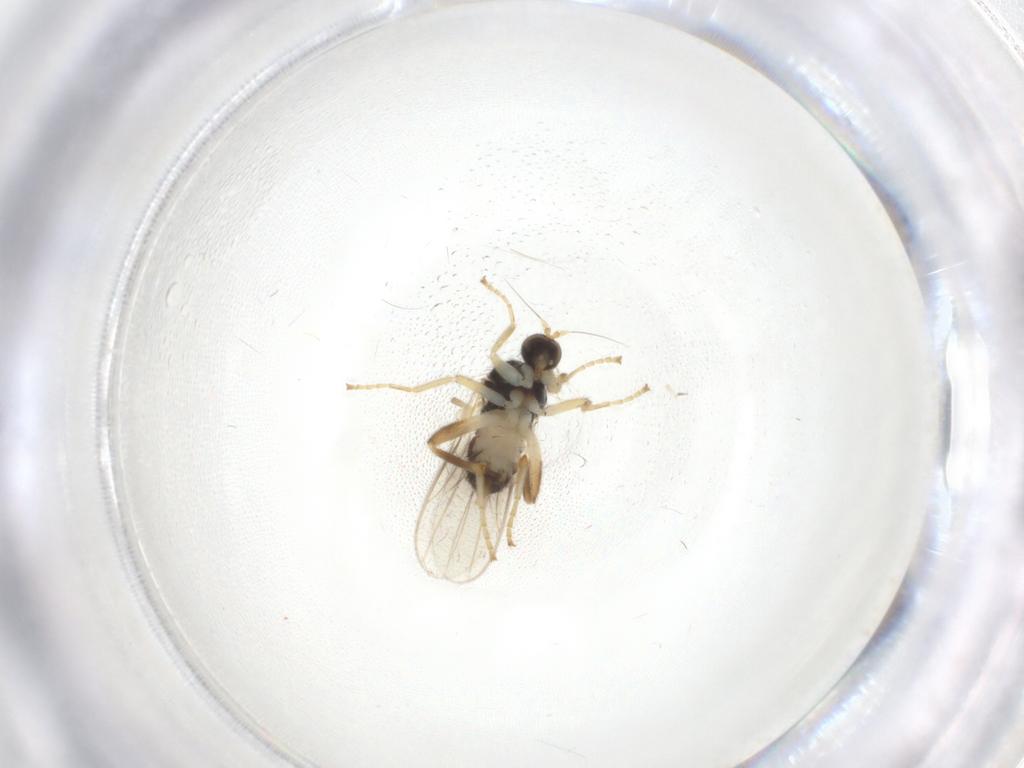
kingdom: Animalia
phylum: Arthropoda
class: Insecta
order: Diptera
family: Hybotidae
